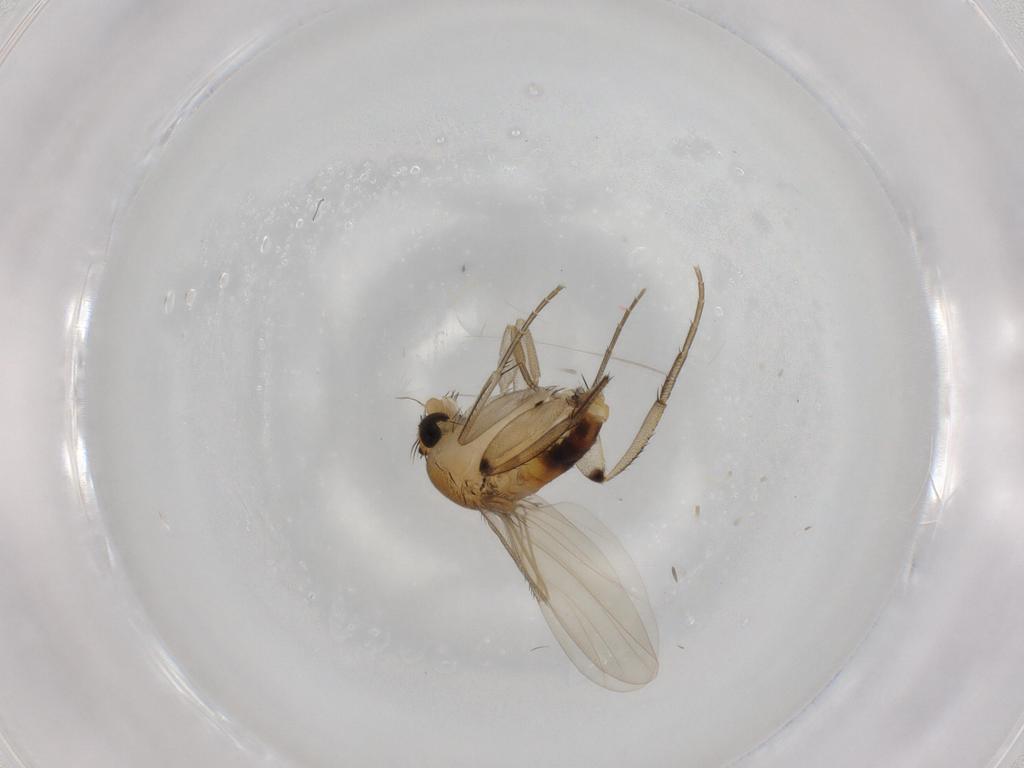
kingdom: Animalia
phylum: Arthropoda
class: Insecta
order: Diptera
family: Phoridae
